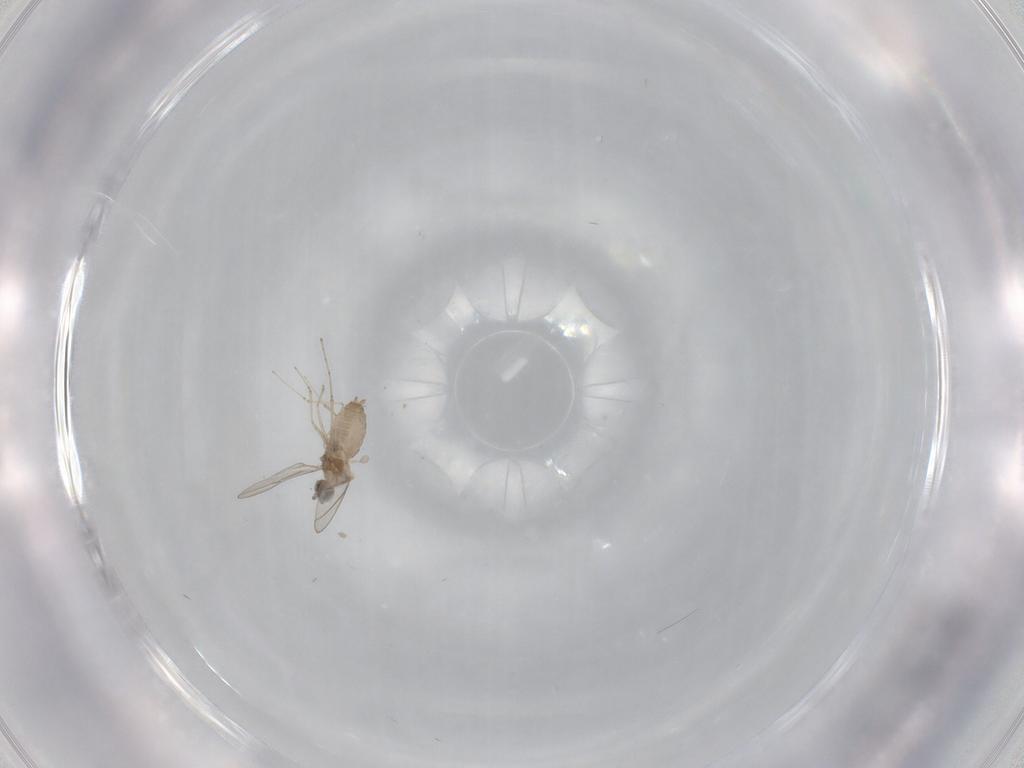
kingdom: Animalia
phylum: Arthropoda
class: Insecta
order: Diptera
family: Cecidomyiidae
